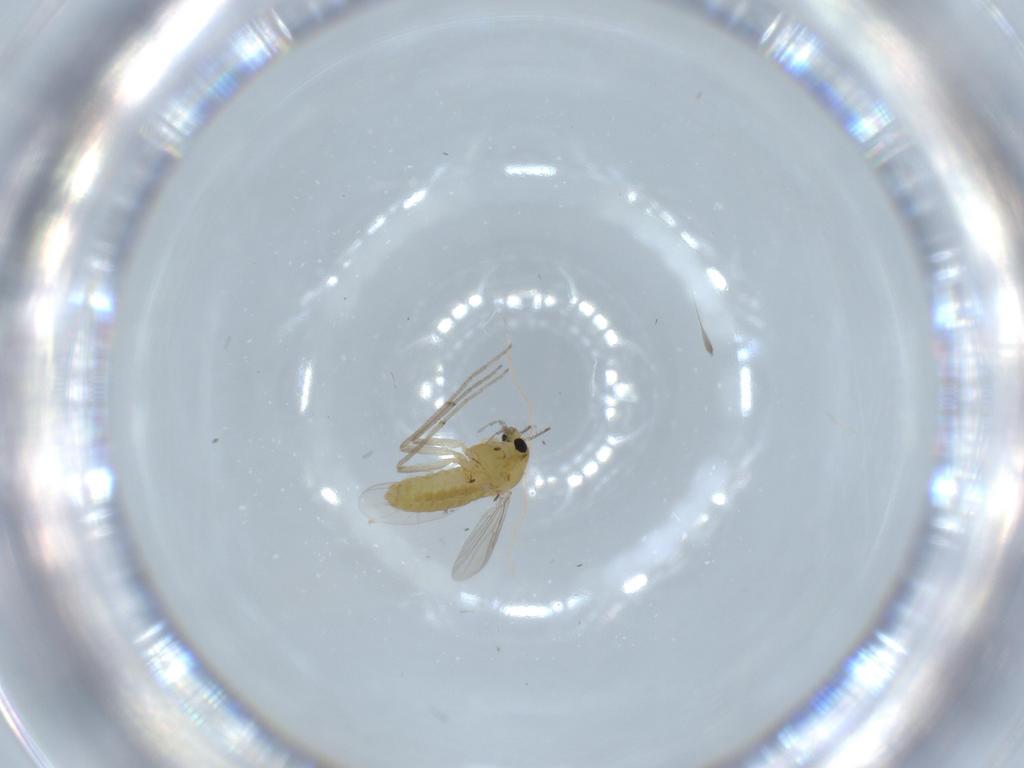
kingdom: Animalia
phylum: Arthropoda
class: Insecta
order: Diptera
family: Chironomidae
